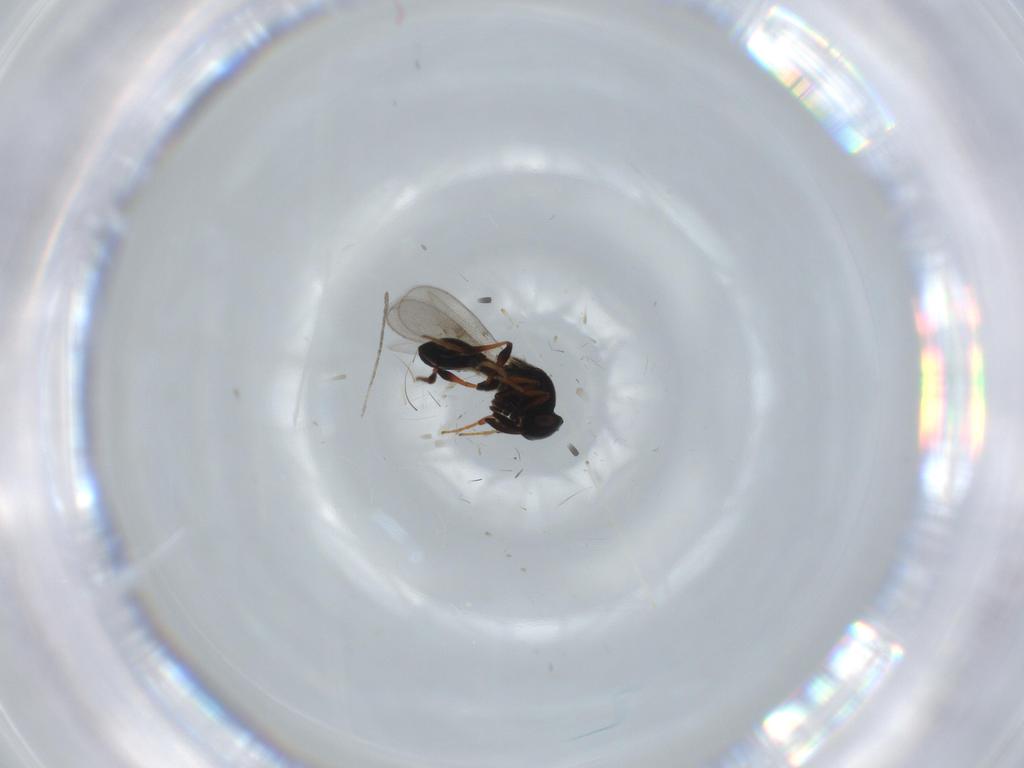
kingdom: Animalia
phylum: Arthropoda
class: Insecta
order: Hymenoptera
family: Platygastridae
